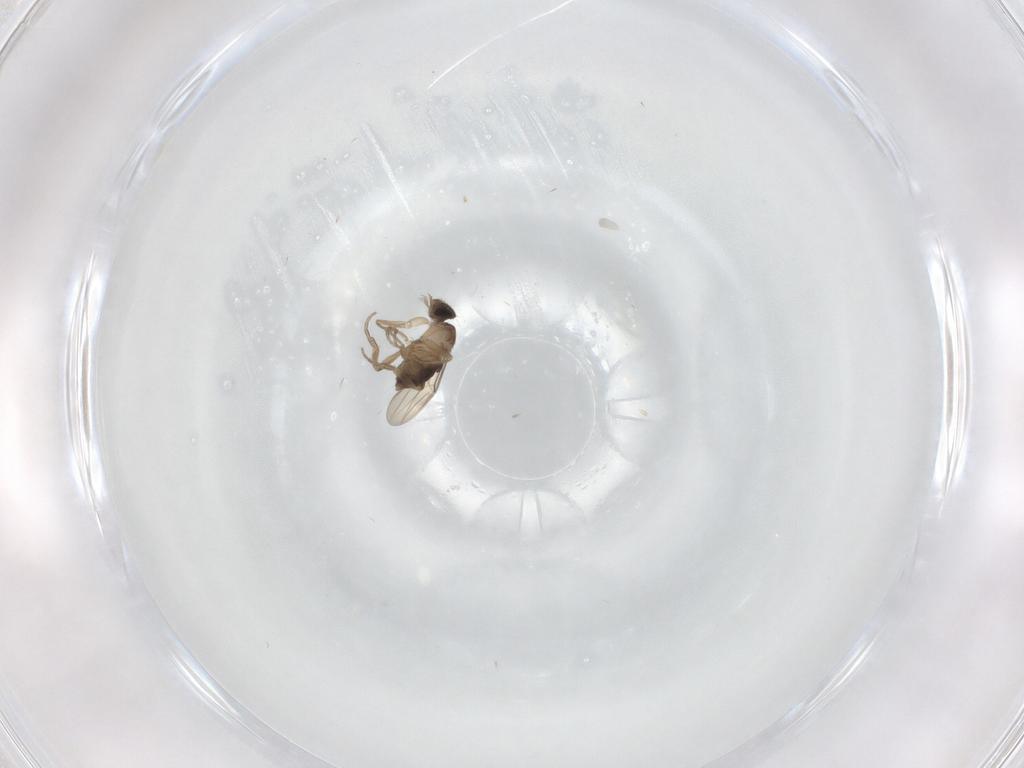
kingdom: Animalia
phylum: Arthropoda
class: Insecta
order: Diptera
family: Phoridae
